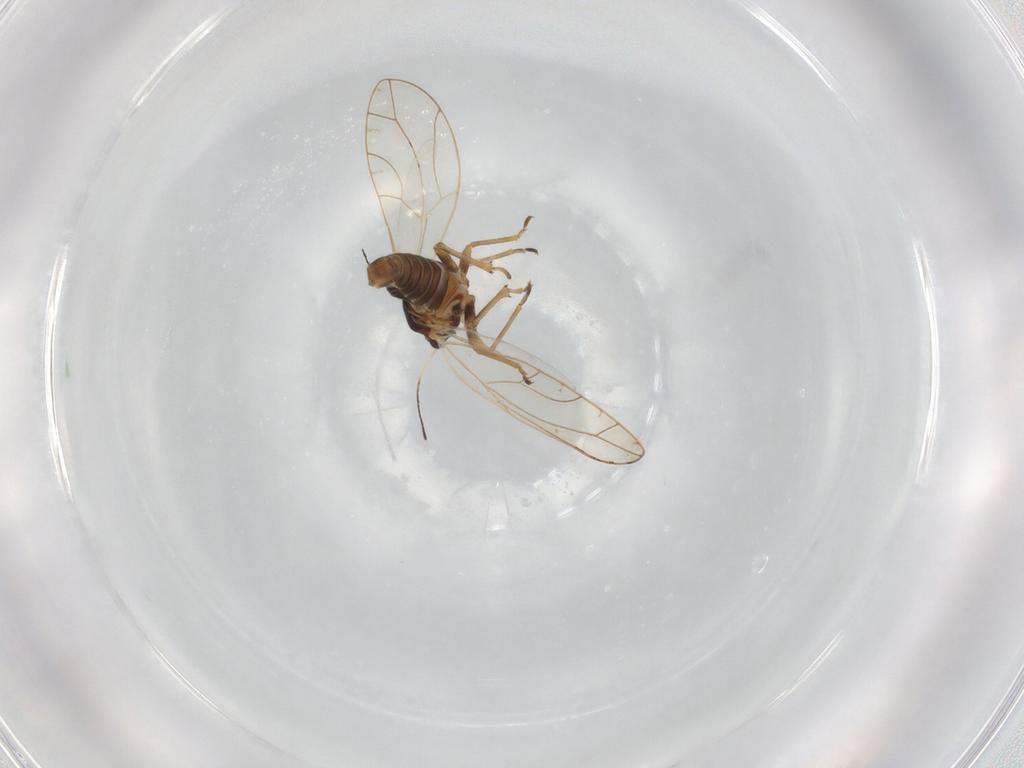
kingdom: Animalia
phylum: Arthropoda
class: Insecta
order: Hemiptera
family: Triozidae
